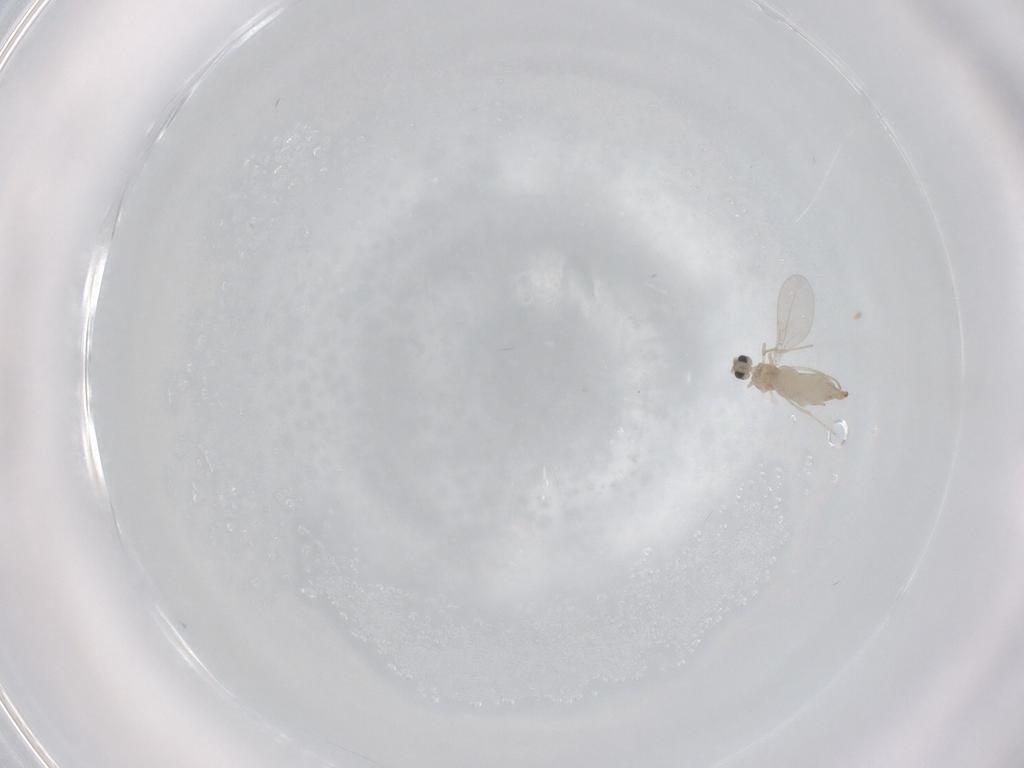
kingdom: Animalia
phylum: Arthropoda
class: Insecta
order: Diptera
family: Cecidomyiidae
